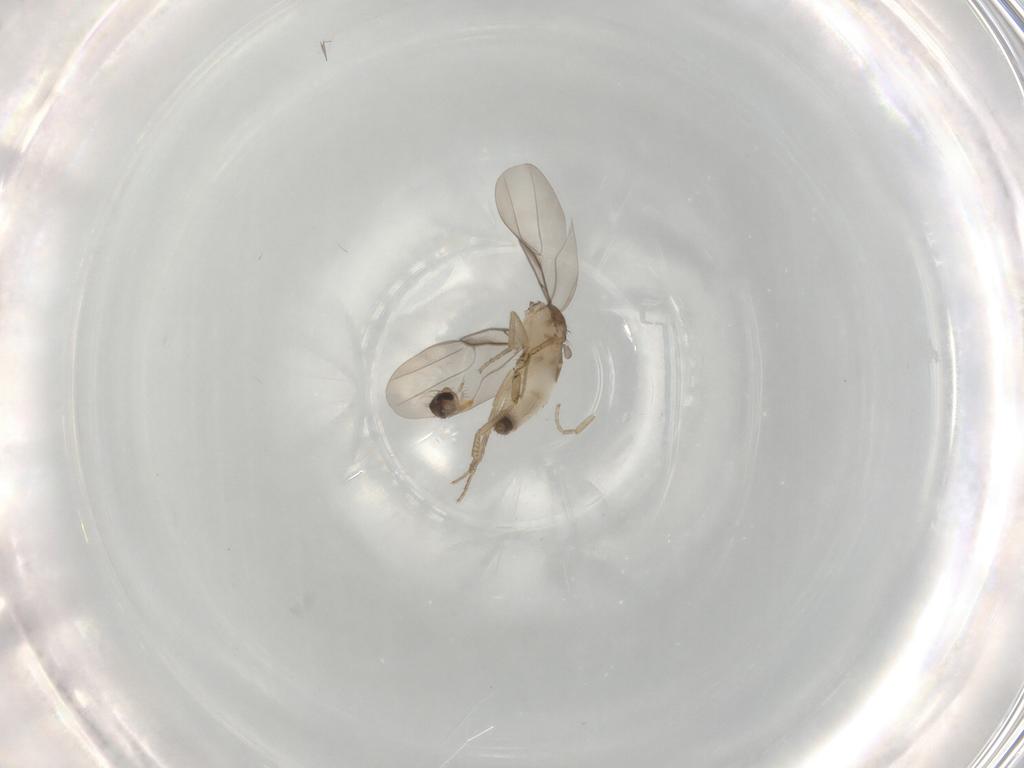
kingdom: Animalia
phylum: Arthropoda
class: Insecta
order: Diptera
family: Phoridae
